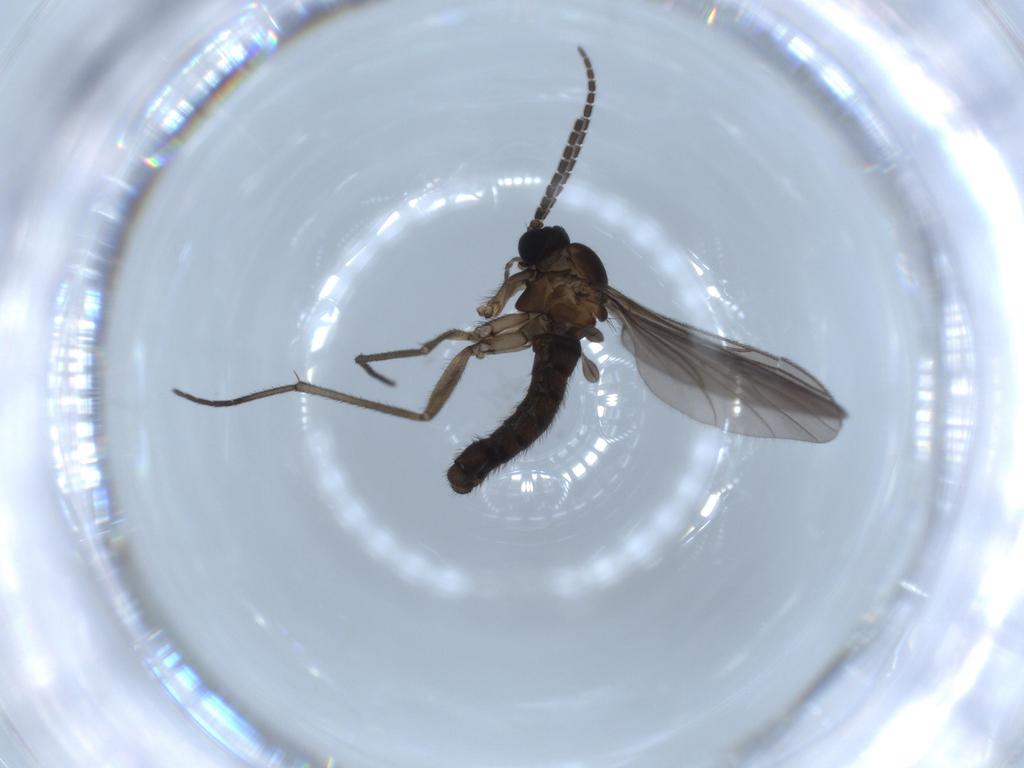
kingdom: Animalia
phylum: Arthropoda
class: Insecta
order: Diptera
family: Sciaridae
